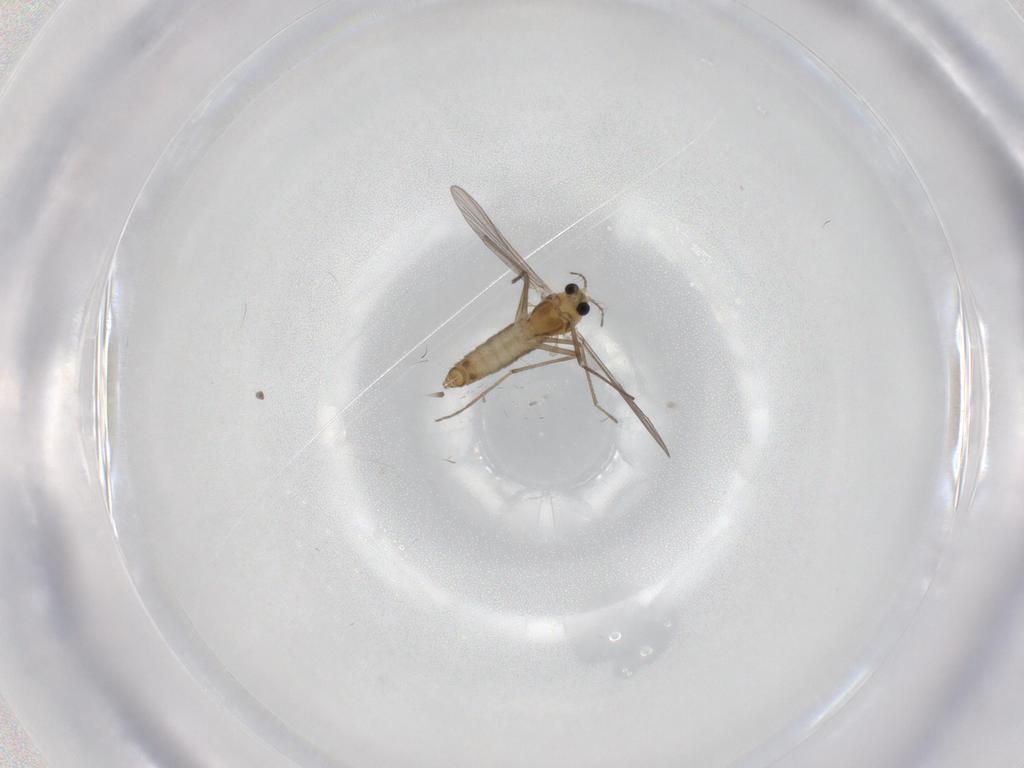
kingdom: Animalia
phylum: Arthropoda
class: Insecta
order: Diptera
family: Chironomidae
